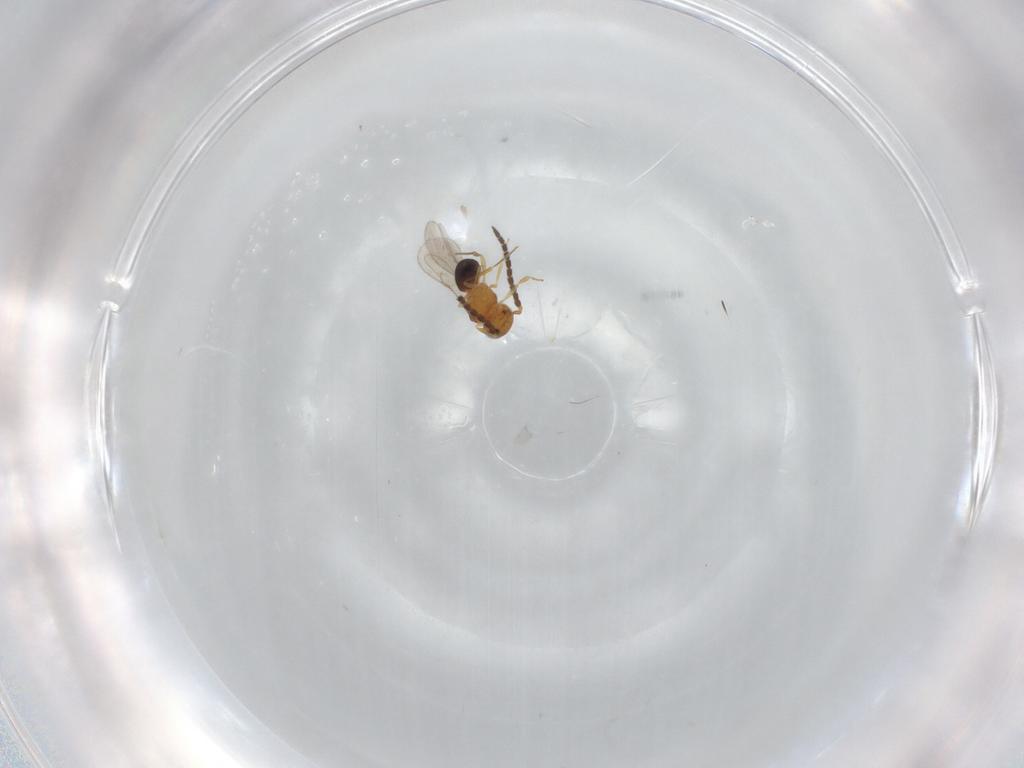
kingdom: Animalia
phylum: Arthropoda
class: Insecta
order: Hymenoptera
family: Scelionidae
